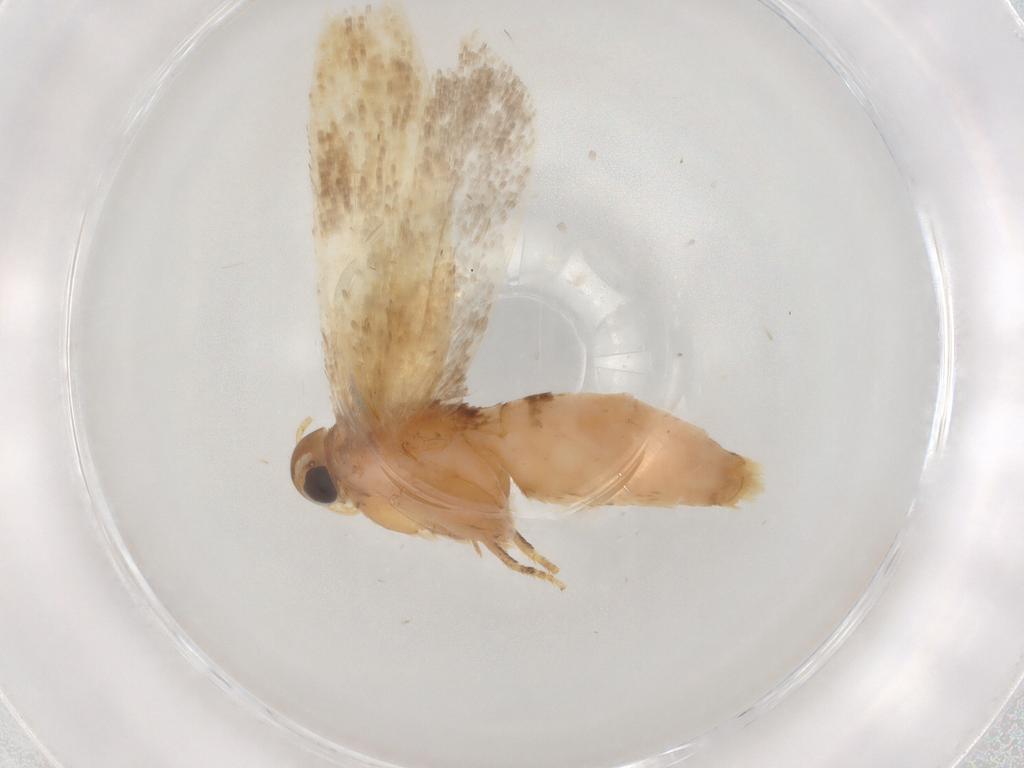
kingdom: Animalia
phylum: Arthropoda
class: Insecta
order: Lepidoptera
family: Gelechiidae
